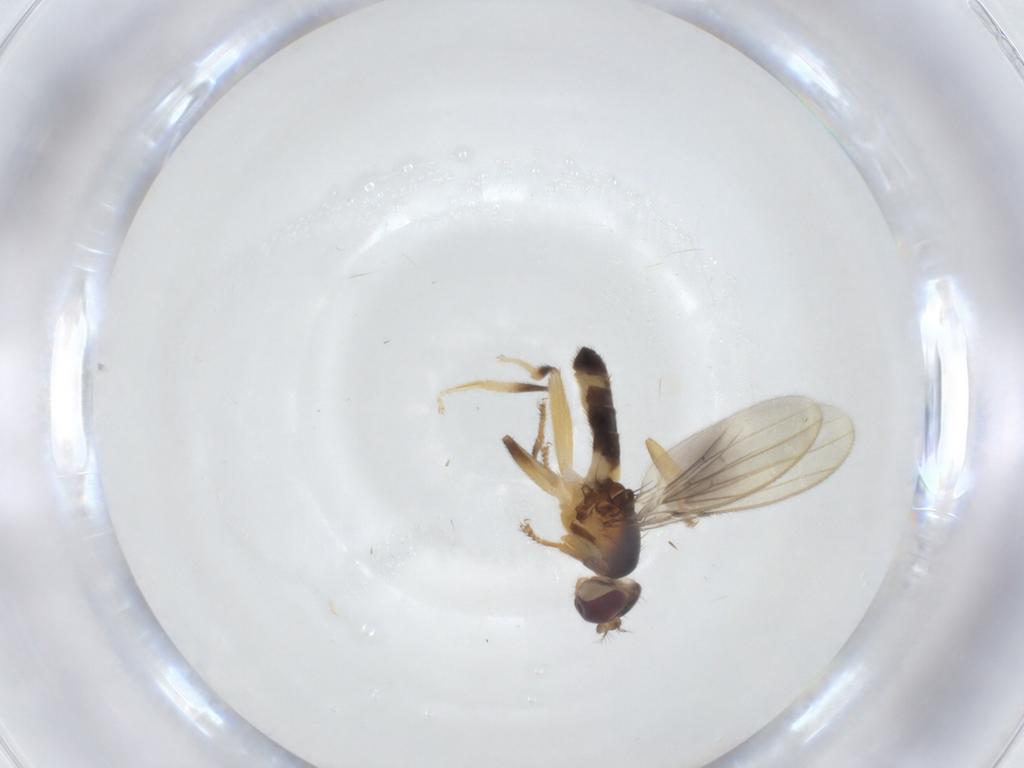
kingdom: Animalia
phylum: Arthropoda
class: Insecta
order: Diptera
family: Periscelididae
